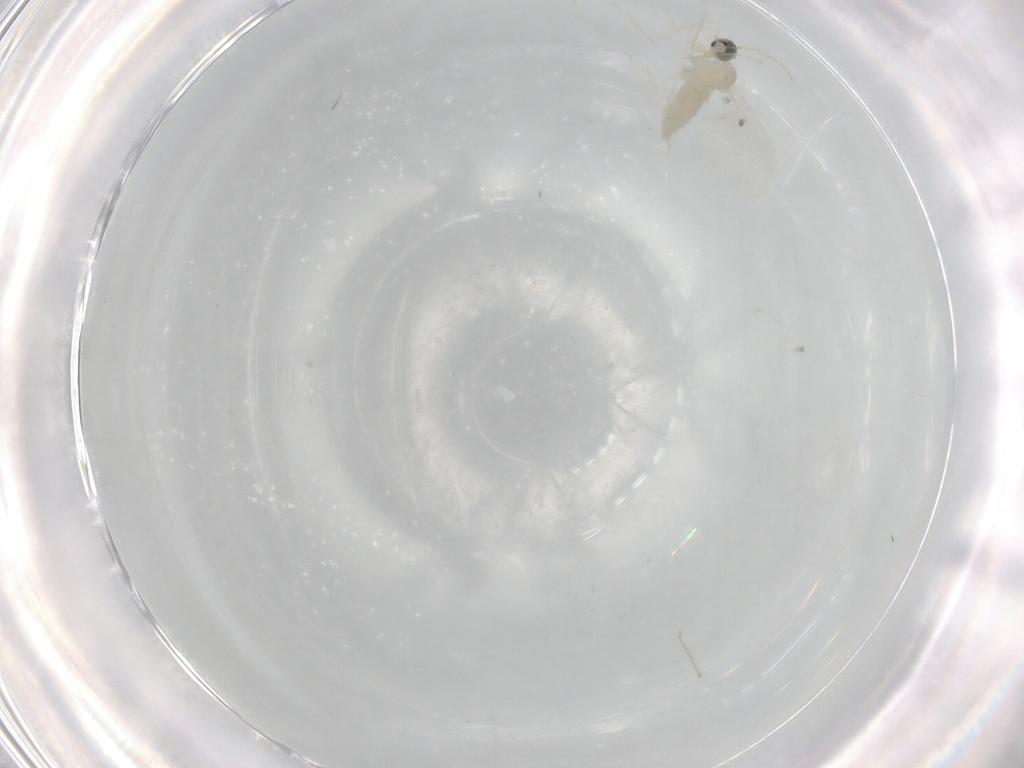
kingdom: Animalia
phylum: Arthropoda
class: Insecta
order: Diptera
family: Cecidomyiidae
